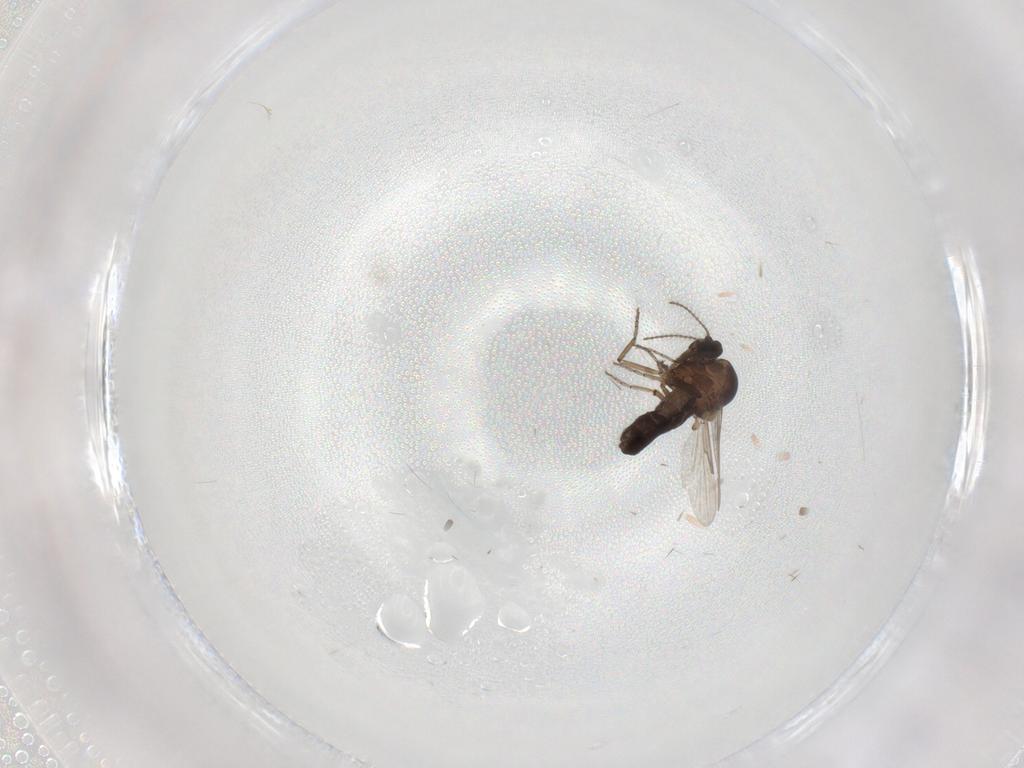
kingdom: Animalia
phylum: Arthropoda
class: Insecta
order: Diptera
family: Ceratopogonidae
